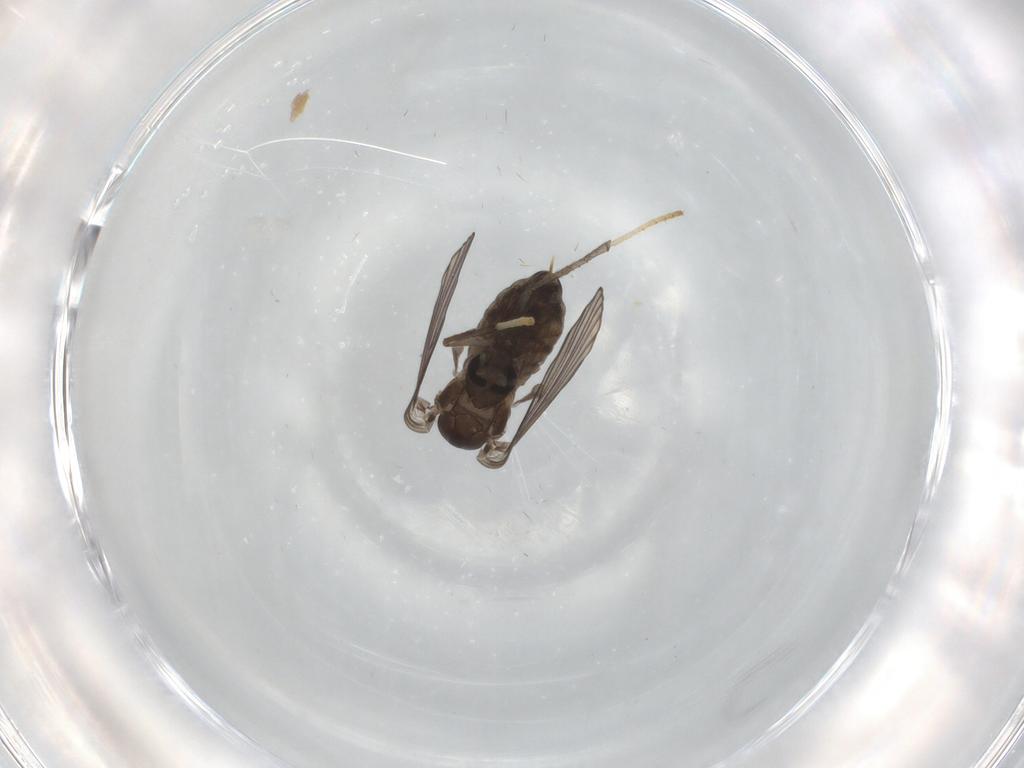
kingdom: Animalia
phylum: Arthropoda
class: Insecta
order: Diptera
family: Psychodidae
